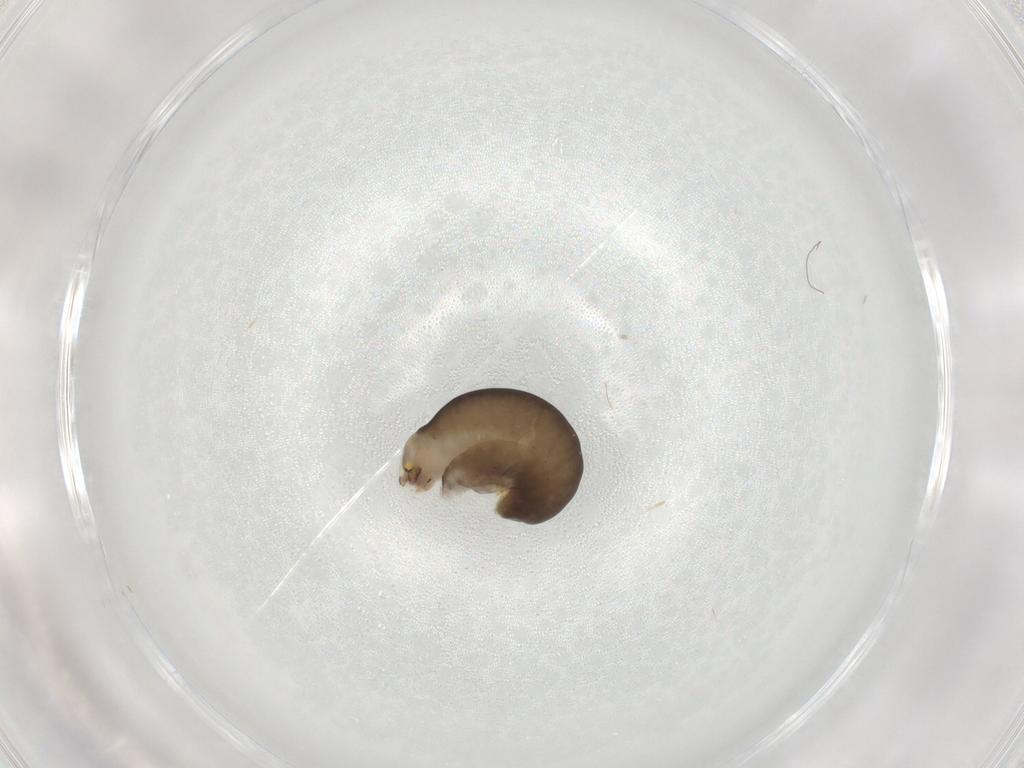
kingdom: Animalia
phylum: Arthropoda
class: Insecta
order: Hymenoptera
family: Dryinidae
